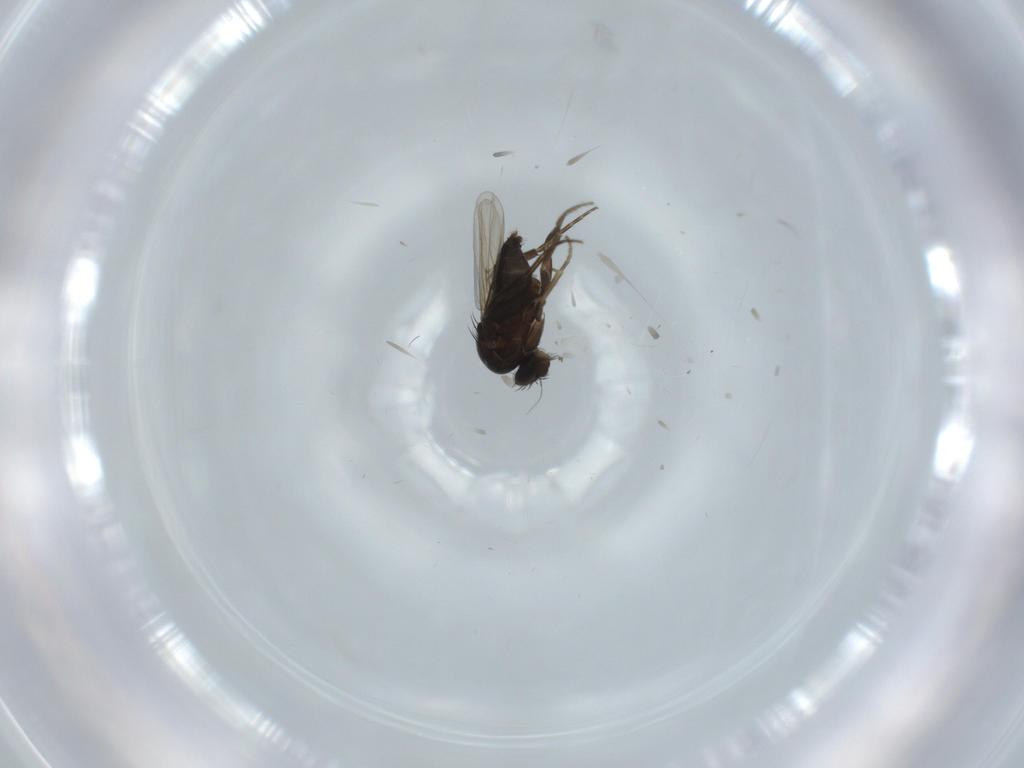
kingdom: Animalia
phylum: Arthropoda
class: Insecta
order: Diptera
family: Phoridae
